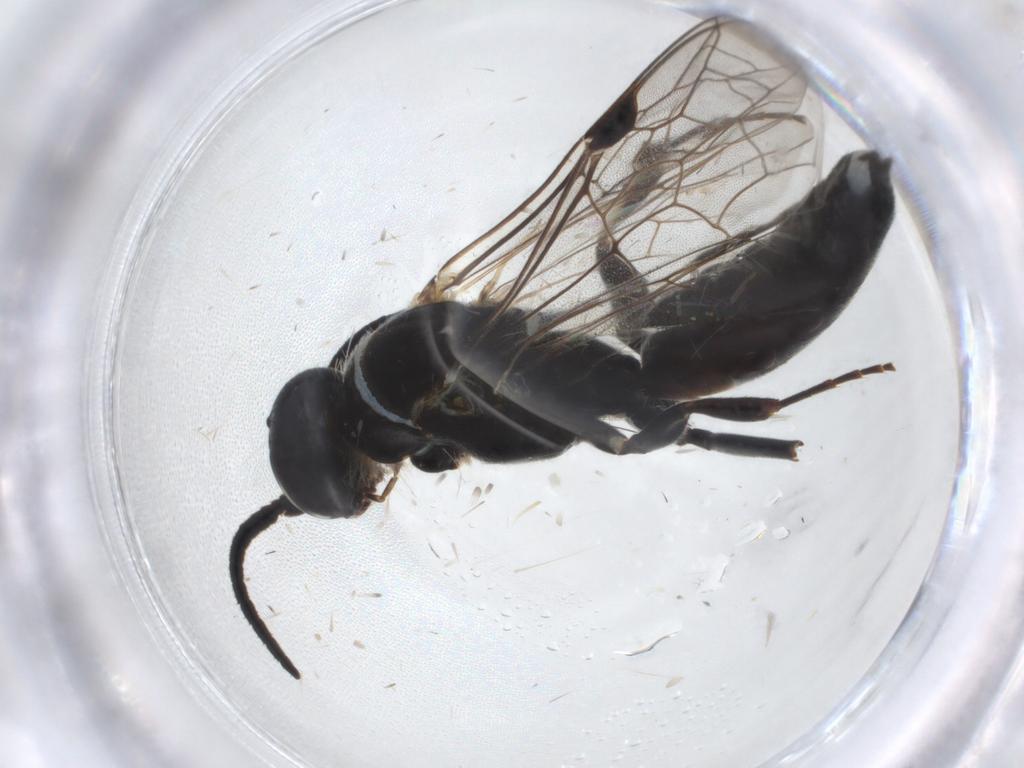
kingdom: Animalia
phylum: Arthropoda
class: Insecta
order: Hymenoptera
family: Thynnidae
